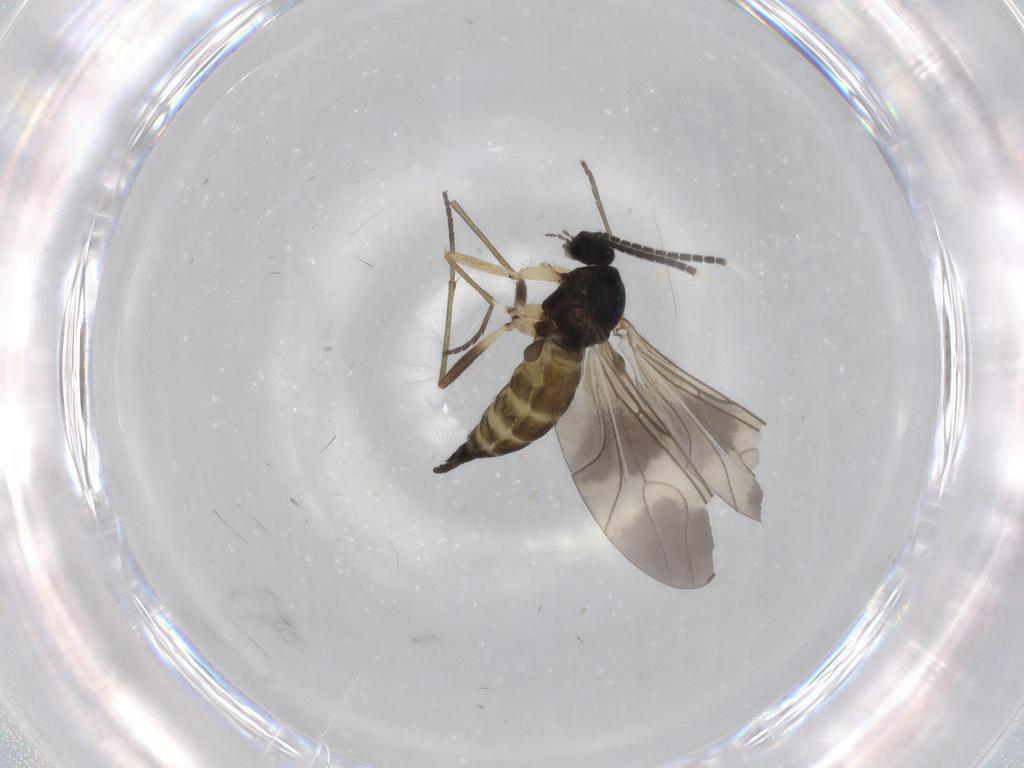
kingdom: Animalia
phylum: Arthropoda
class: Insecta
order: Diptera
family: Sciaridae
